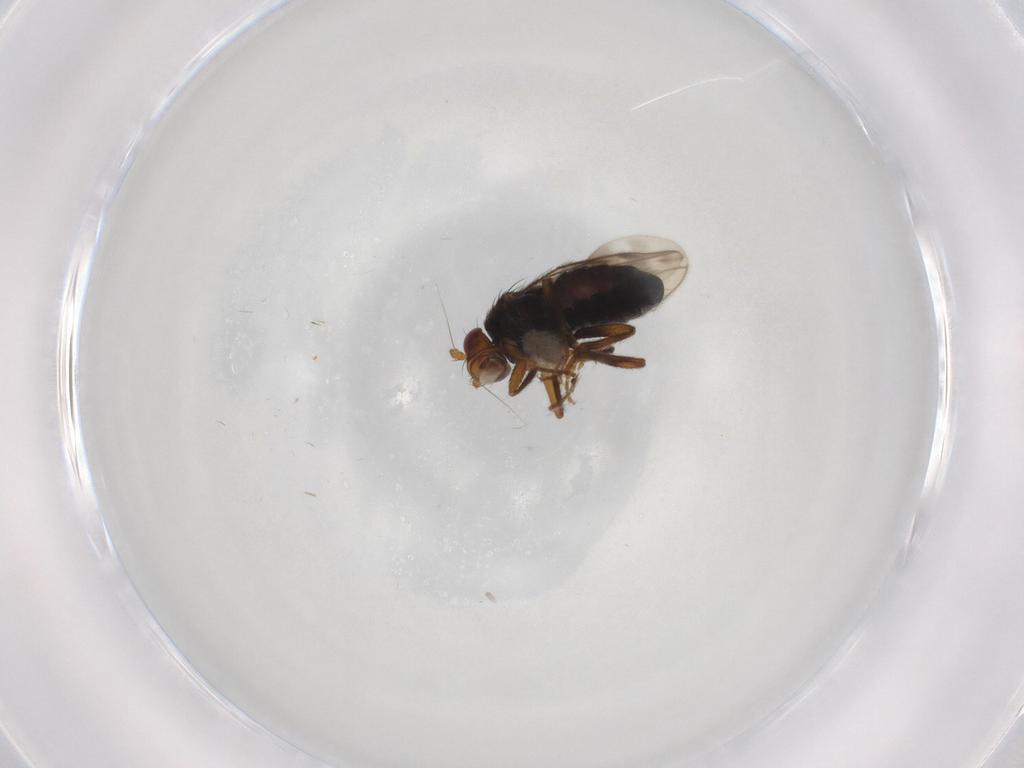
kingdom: Animalia
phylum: Arthropoda
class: Insecta
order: Diptera
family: Sphaeroceridae
